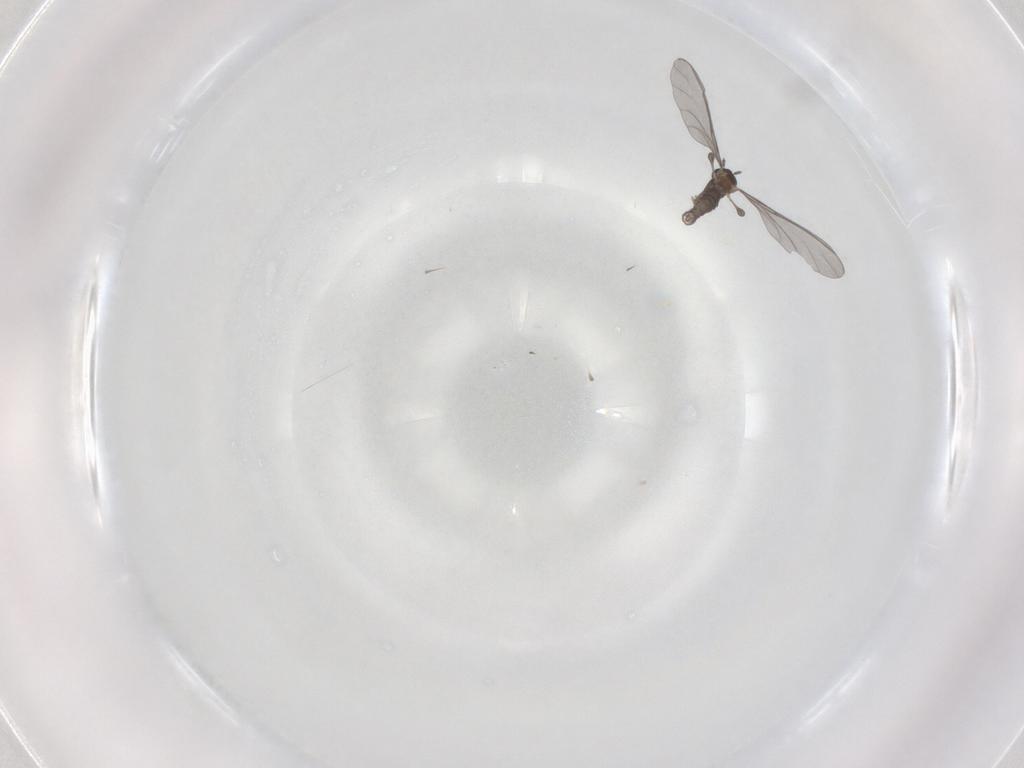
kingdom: Animalia
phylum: Arthropoda
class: Insecta
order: Diptera
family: Sciaridae
